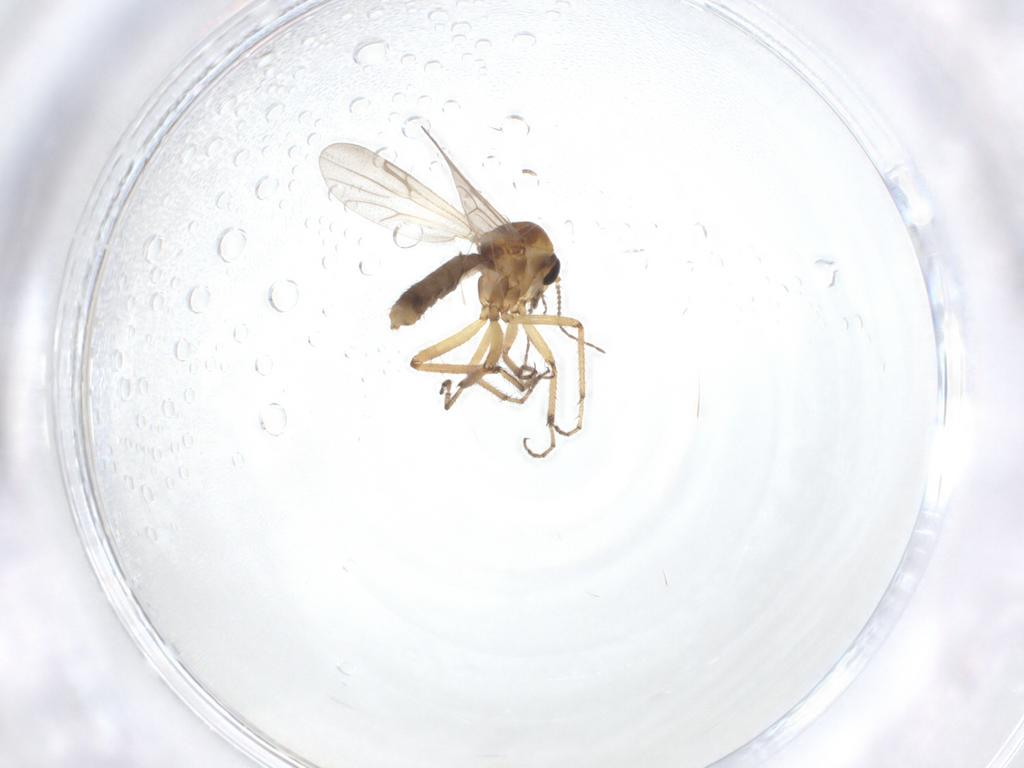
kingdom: Animalia
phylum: Arthropoda
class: Insecta
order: Diptera
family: Ceratopogonidae
